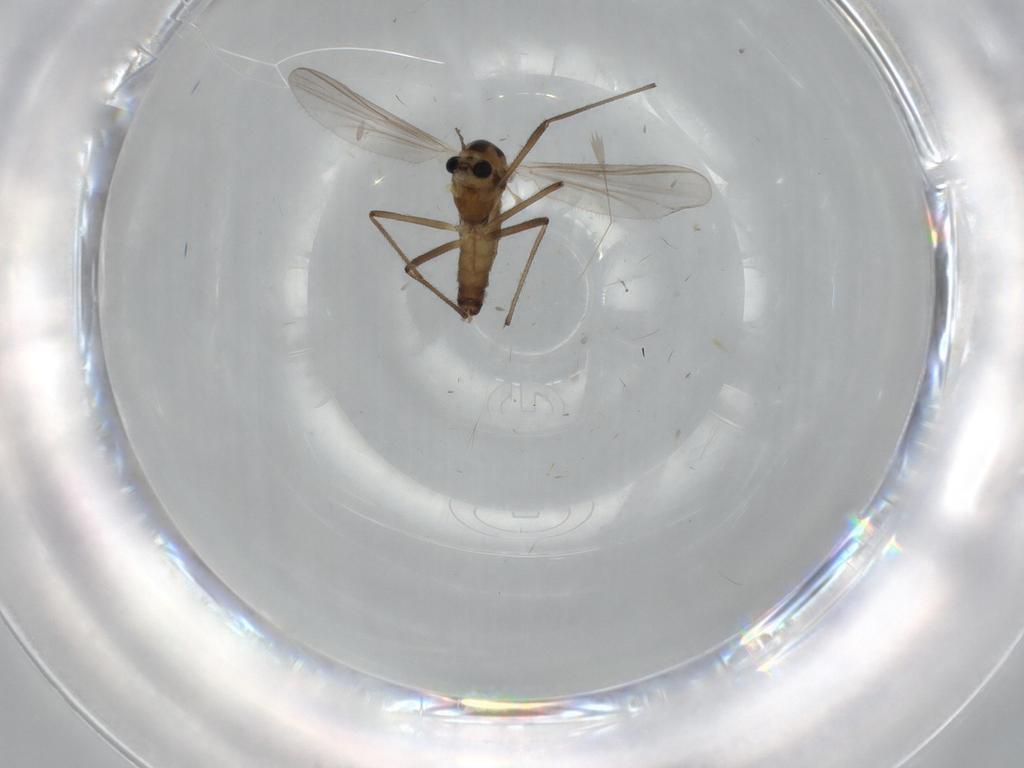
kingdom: Animalia
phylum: Arthropoda
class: Insecta
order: Diptera
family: Chironomidae
